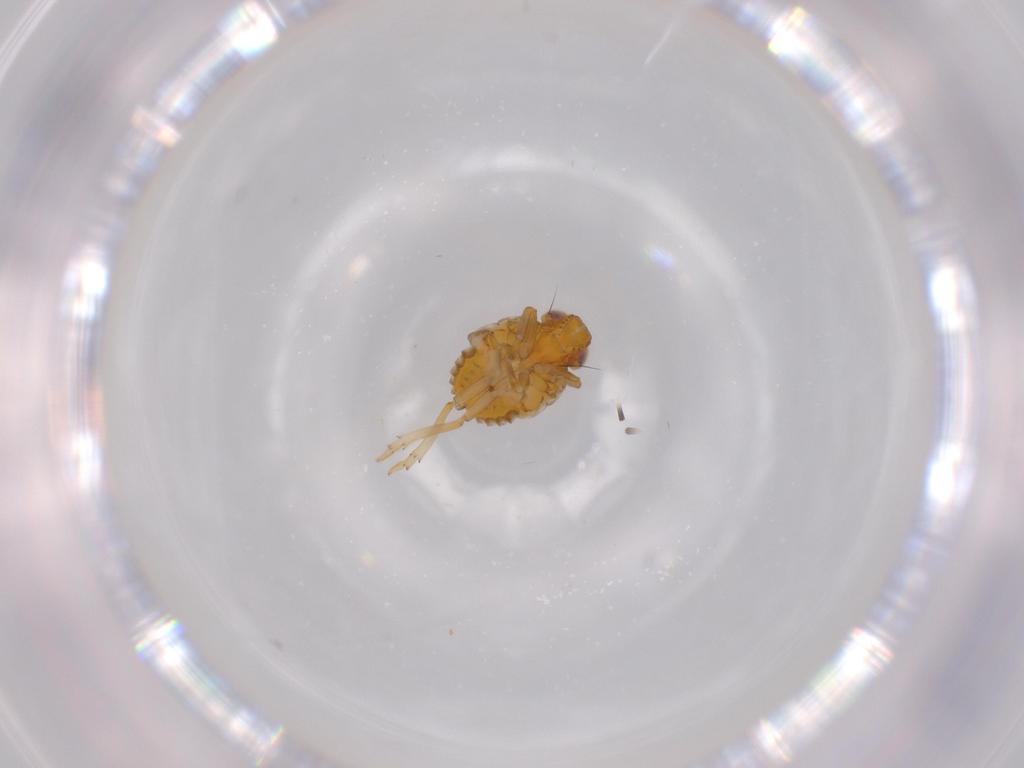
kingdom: Animalia
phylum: Arthropoda
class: Insecta
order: Hemiptera
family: Issidae
